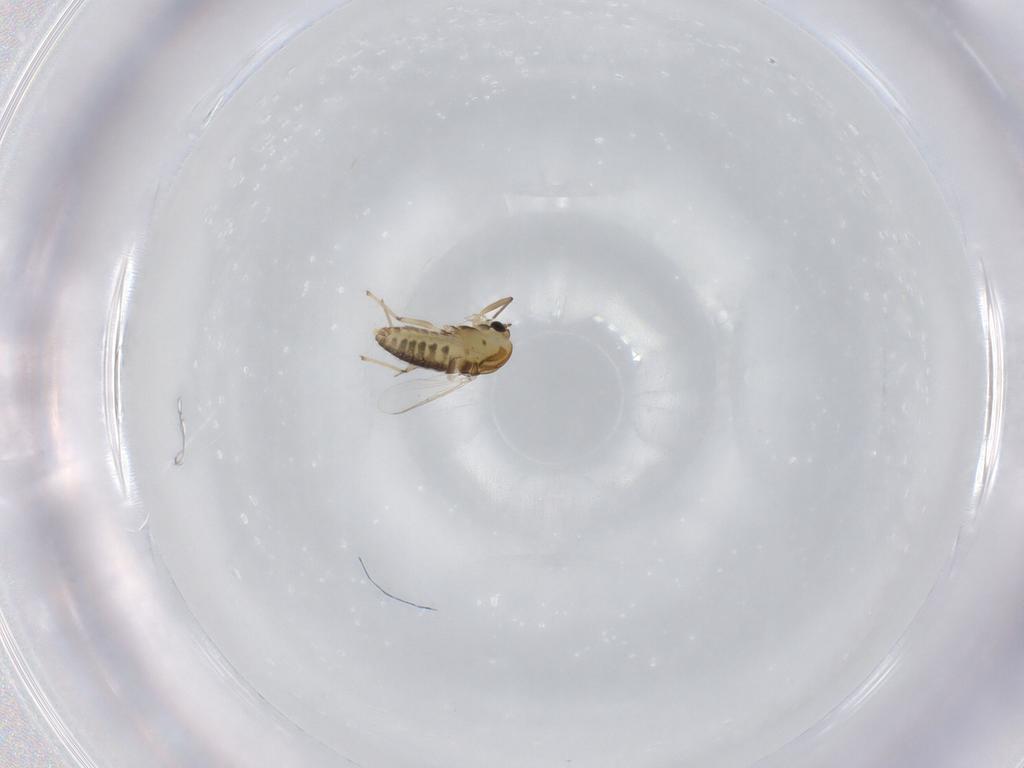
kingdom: Animalia
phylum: Arthropoda
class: Insecta
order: Diptera
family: Chironomidae
